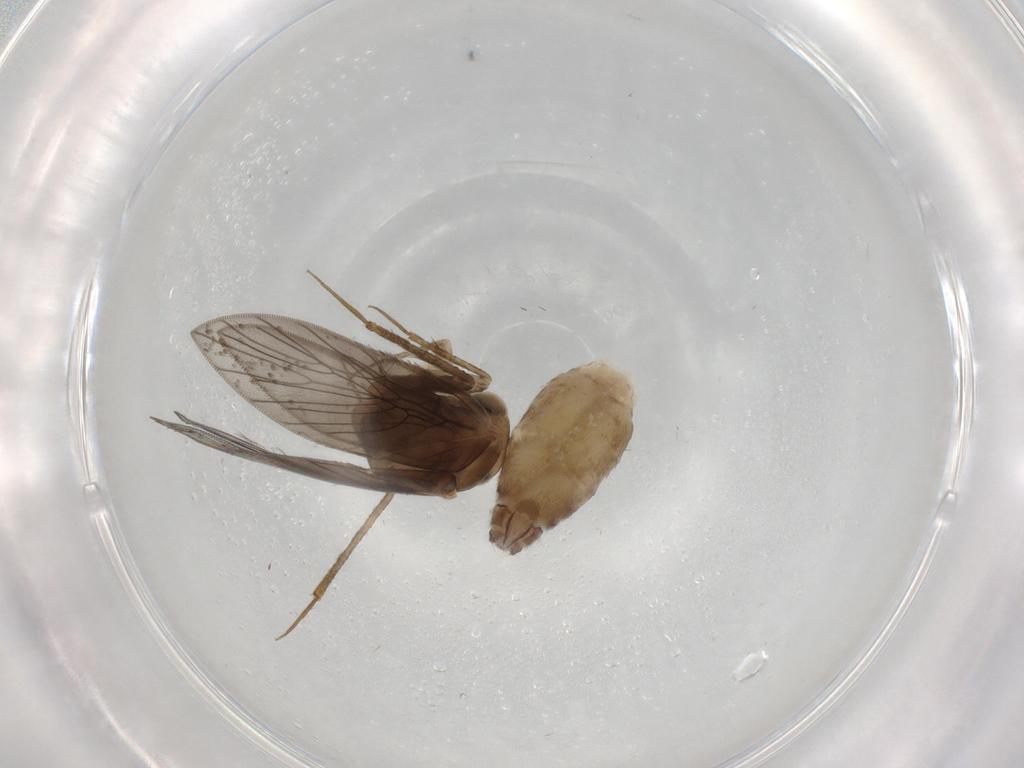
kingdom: Animalia
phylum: Arthropoda
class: Insecta
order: Psocodea
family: Lepidopsocidae
